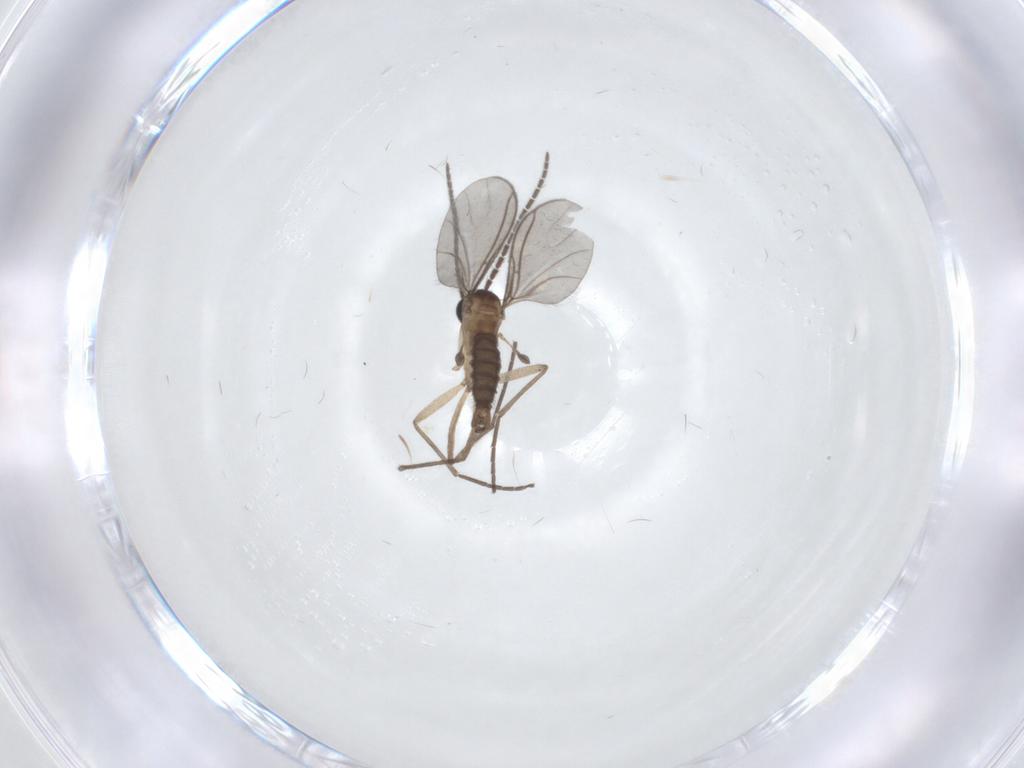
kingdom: Animalia
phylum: Arthropoda
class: Insecta
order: Diptera
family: Sciaridae
